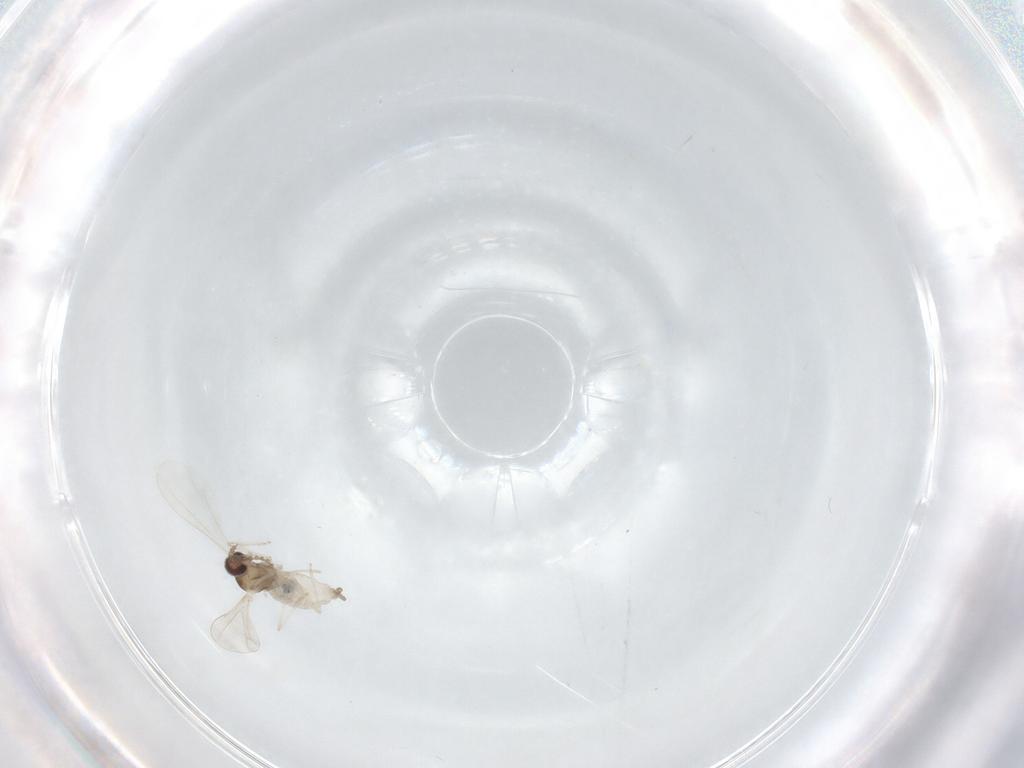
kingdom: Animalia
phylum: Arthropoda
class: Insecta
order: Diptera
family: Cecidomyiidae
